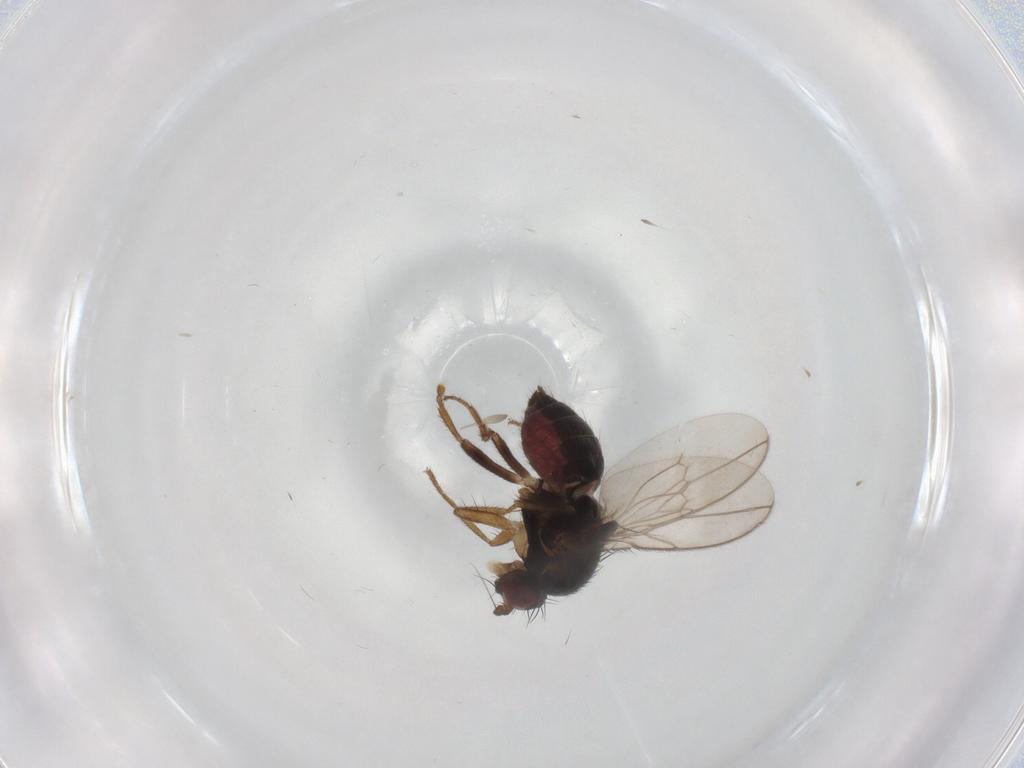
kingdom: Animalia
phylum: Arthropoda
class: Insecta
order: Diptera
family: Sphaeroceridae
